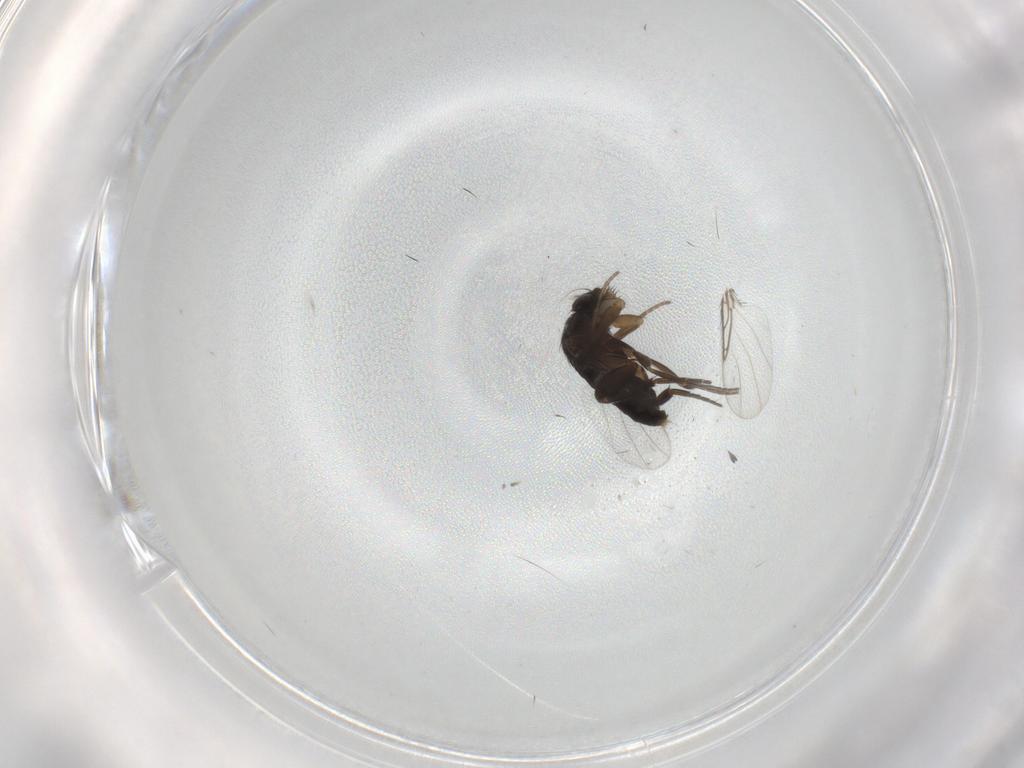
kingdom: Animalia
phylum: Arthropoda
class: Insecta
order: Diptera
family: Phoridae
